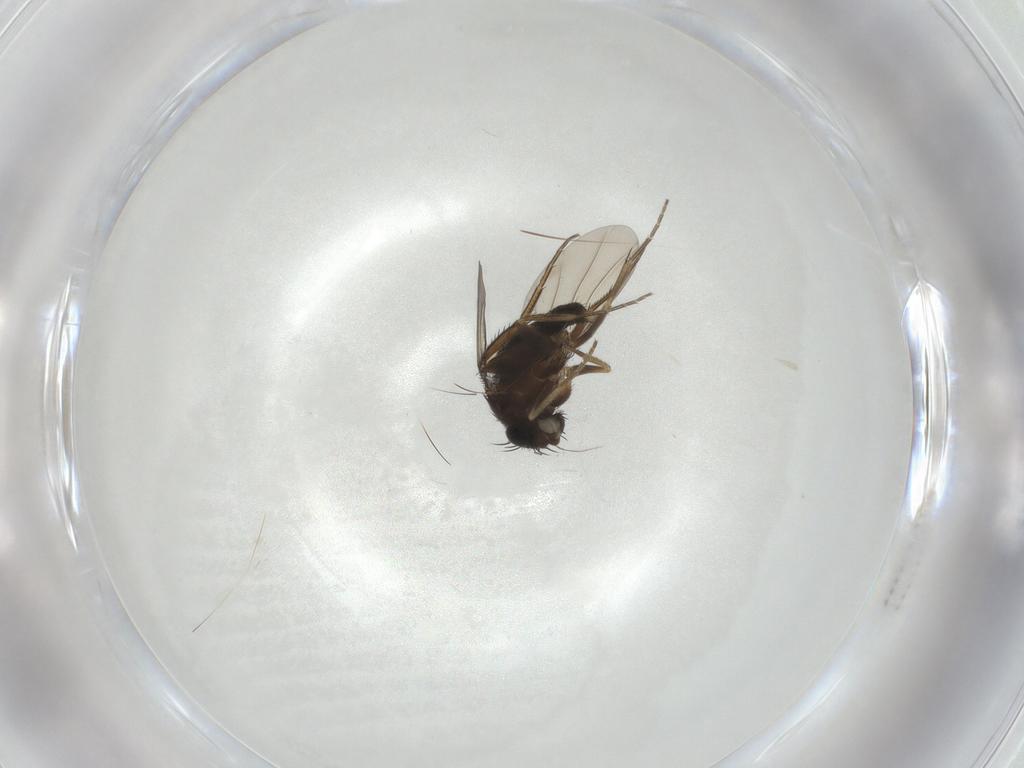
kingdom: Animalia
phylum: Arthropoda
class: Insecta
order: Diptera
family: Phoridae
